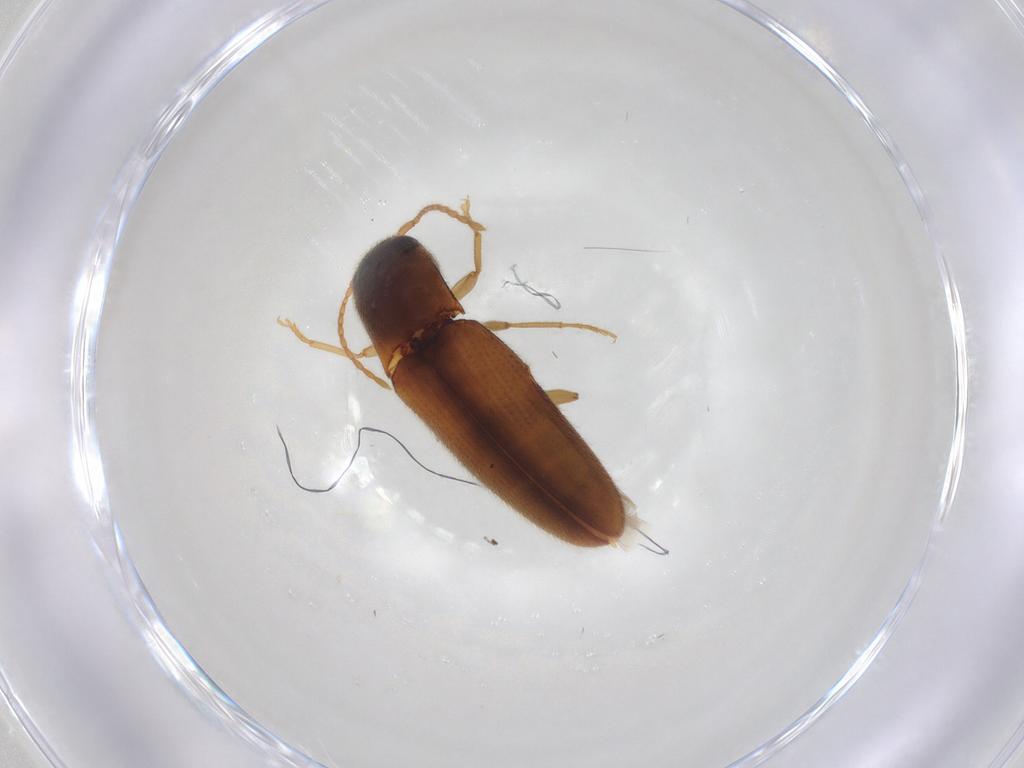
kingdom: Animalia
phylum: Arthropoda
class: Insecta
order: Coleoptera
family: Elateridae
